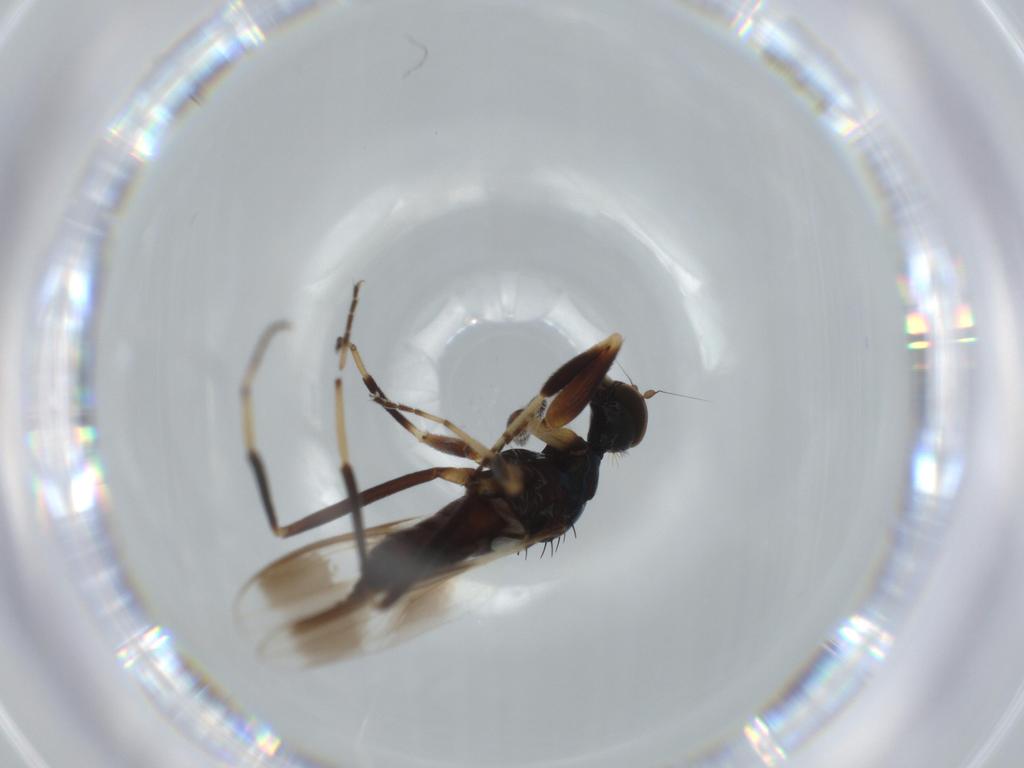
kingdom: Animalia
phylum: Arthropoda
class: Insecta
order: Diptera
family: Hybotidae
